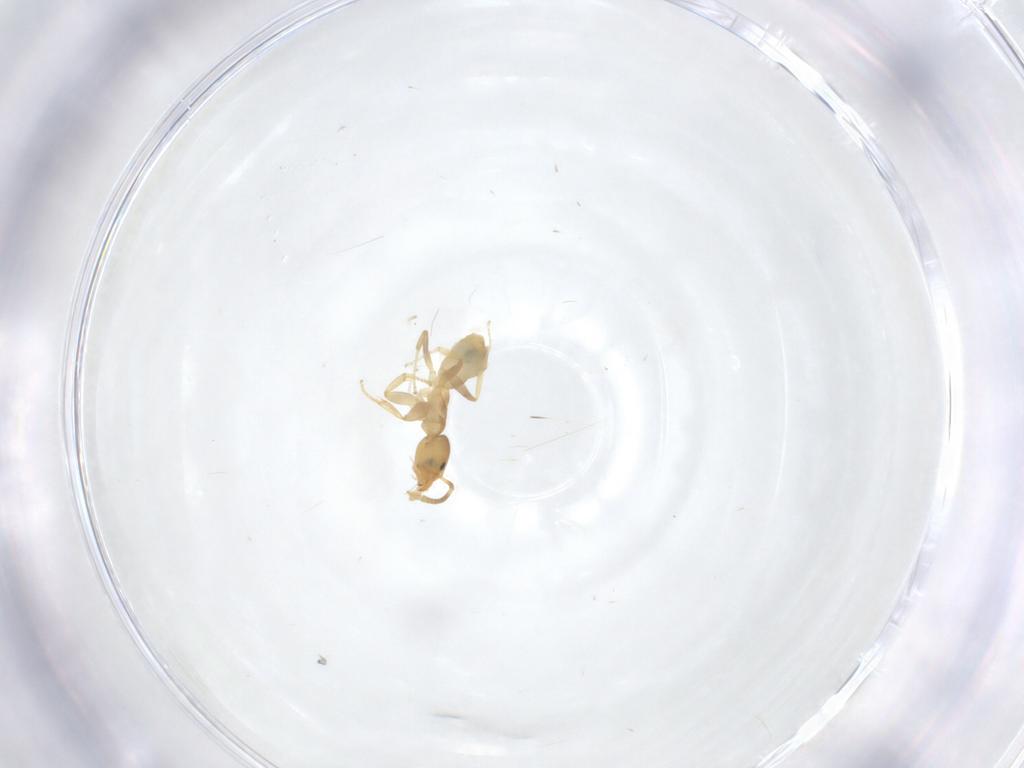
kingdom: Animalia
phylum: Arthropoda
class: Insecta
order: Hymenoptera
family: Formicidae
